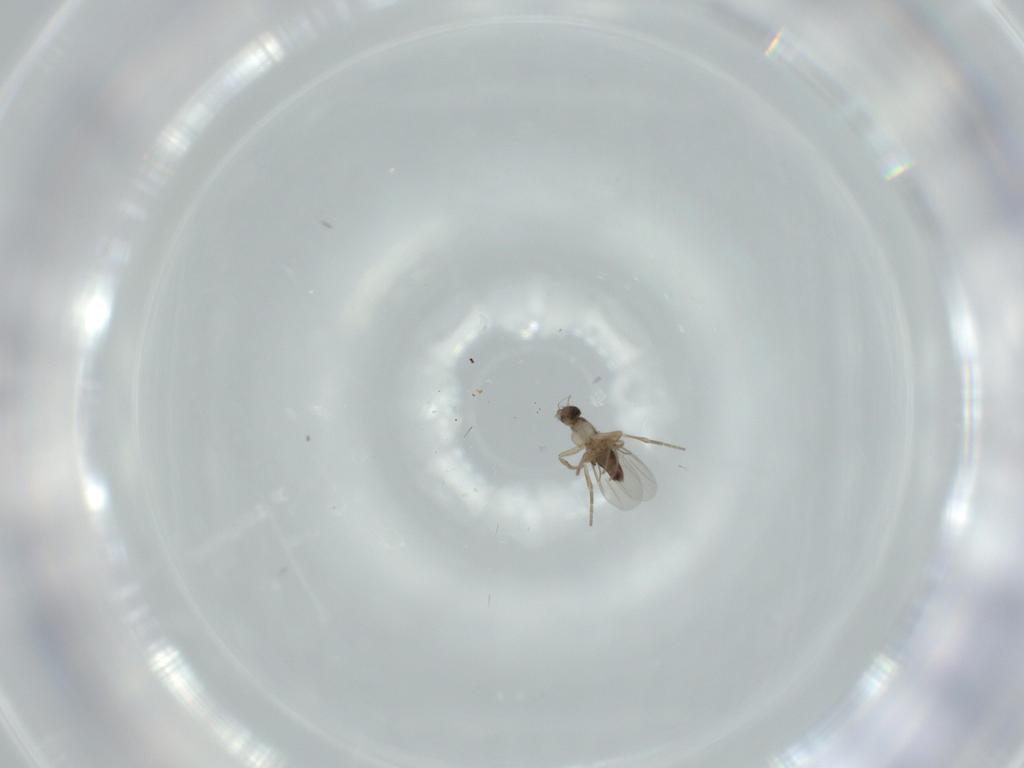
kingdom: Animalia
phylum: Arthropoda
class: Insecta
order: Diptera
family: Phoridae
